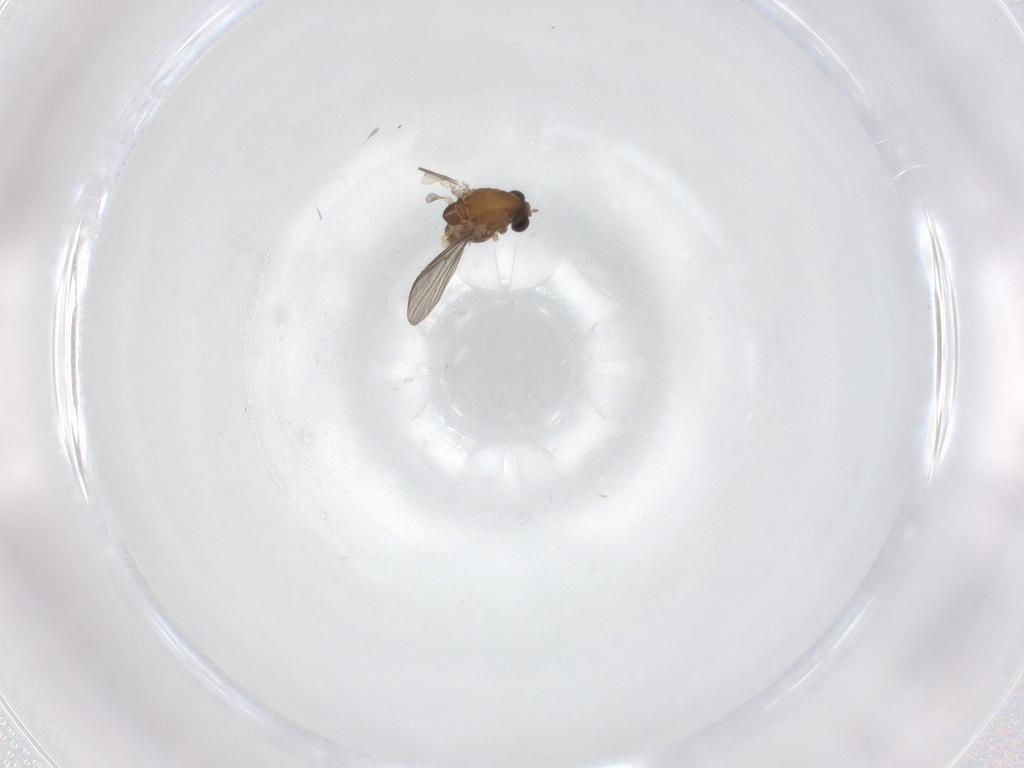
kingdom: Animalia
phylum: Arthropoda
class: Insecta
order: Diptera
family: Chironomidae
